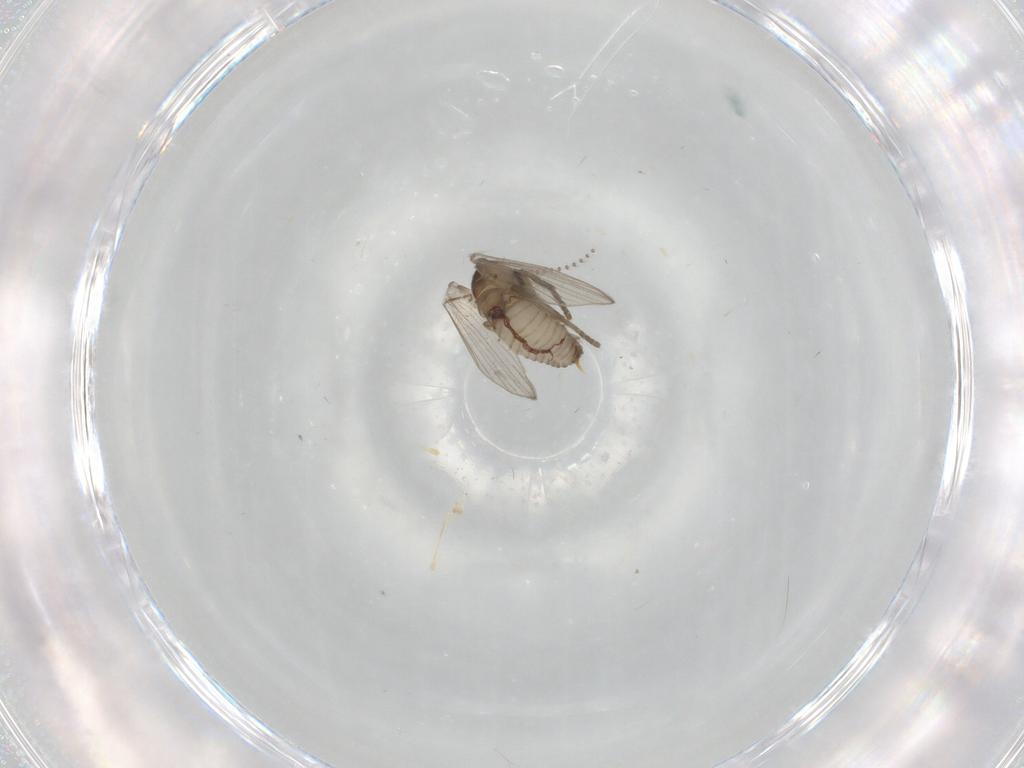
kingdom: Animalia
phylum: Arthropoda
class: Insecta
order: Diptera
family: Psychodidae
